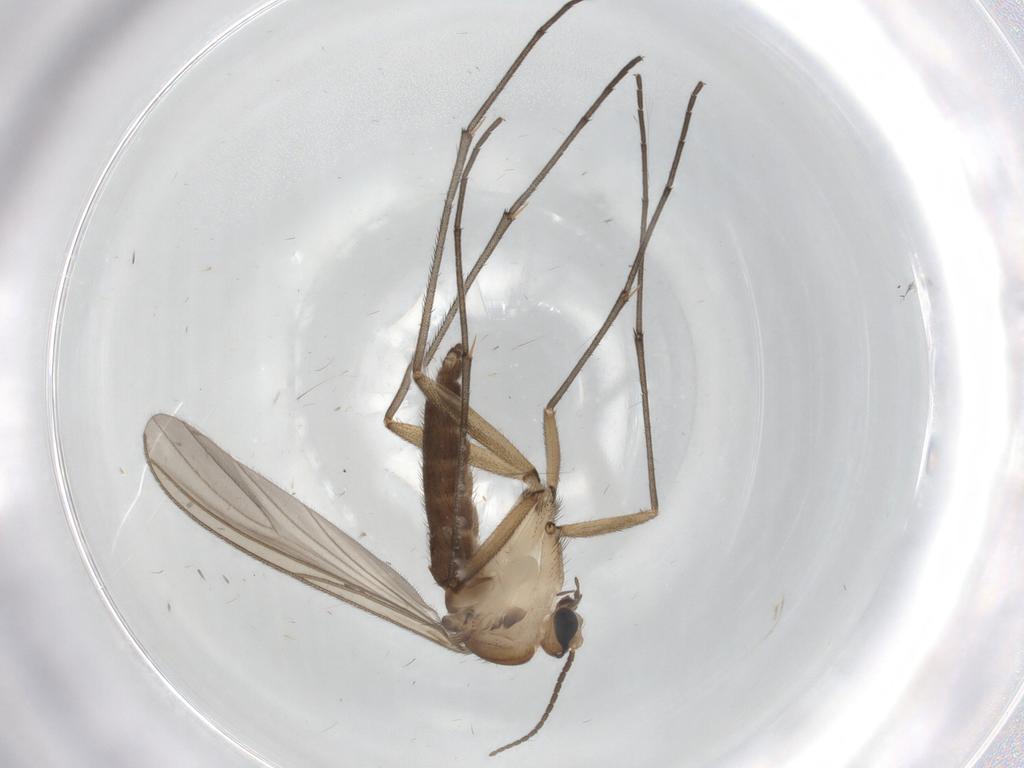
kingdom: Animalia
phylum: Arthropoda
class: Insecta
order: Diptera
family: Sciaridae
